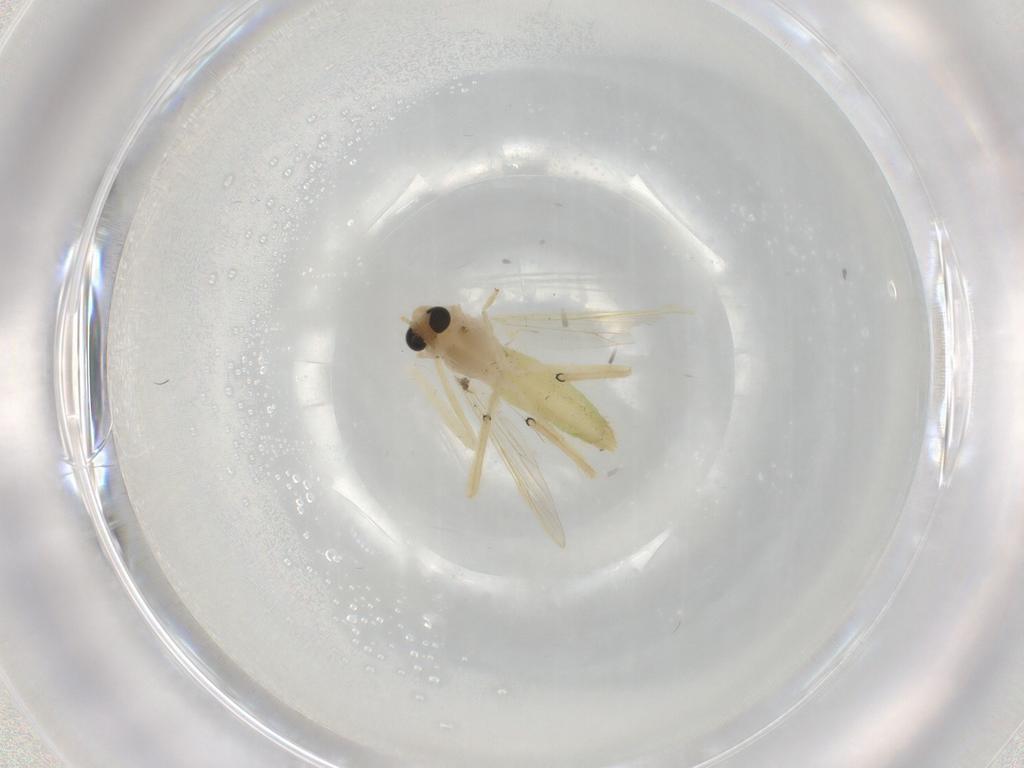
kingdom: Animalia
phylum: Arthropoda
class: Insecta
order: Diptera
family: Chironomidae
